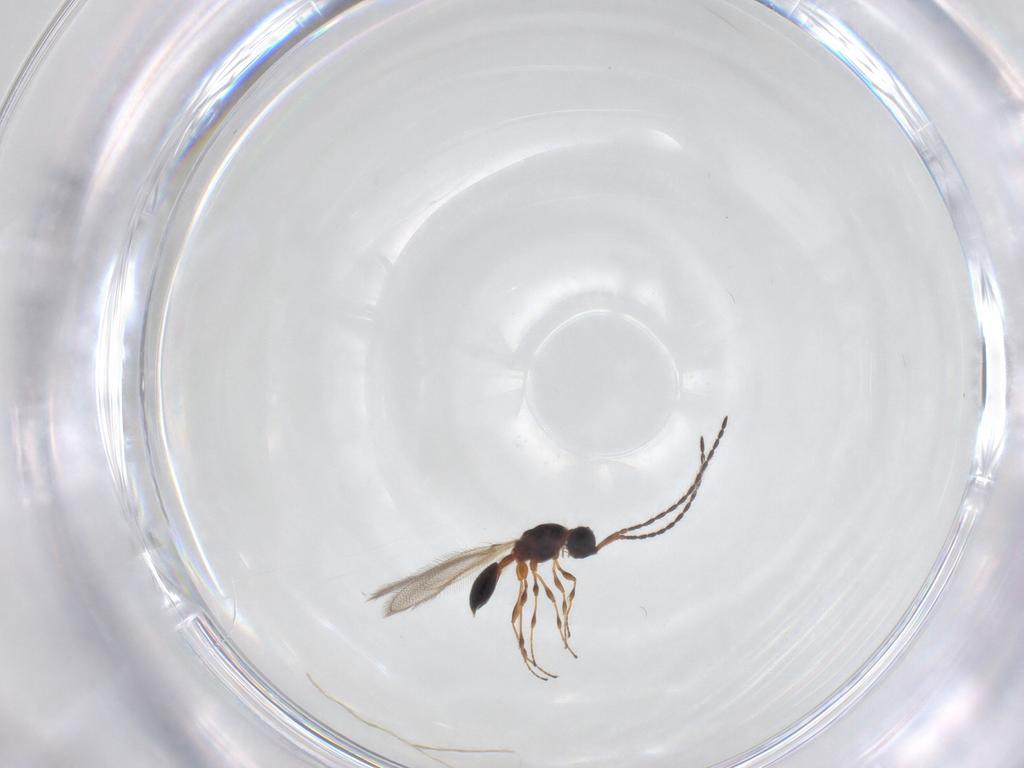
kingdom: Animalia
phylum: Arthropoda
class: Insecta
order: Hymenoptera
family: Diapriidae
